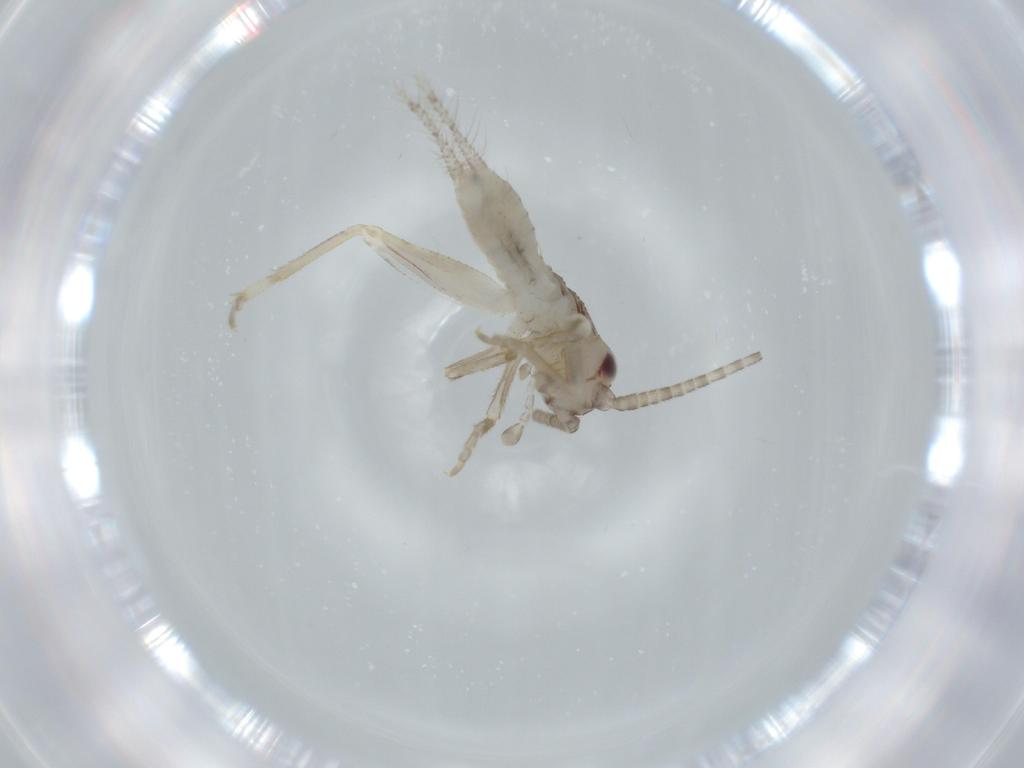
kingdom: Animalia
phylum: Arthropoda
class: Insecta
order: Orthoptera
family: Gryllidae
